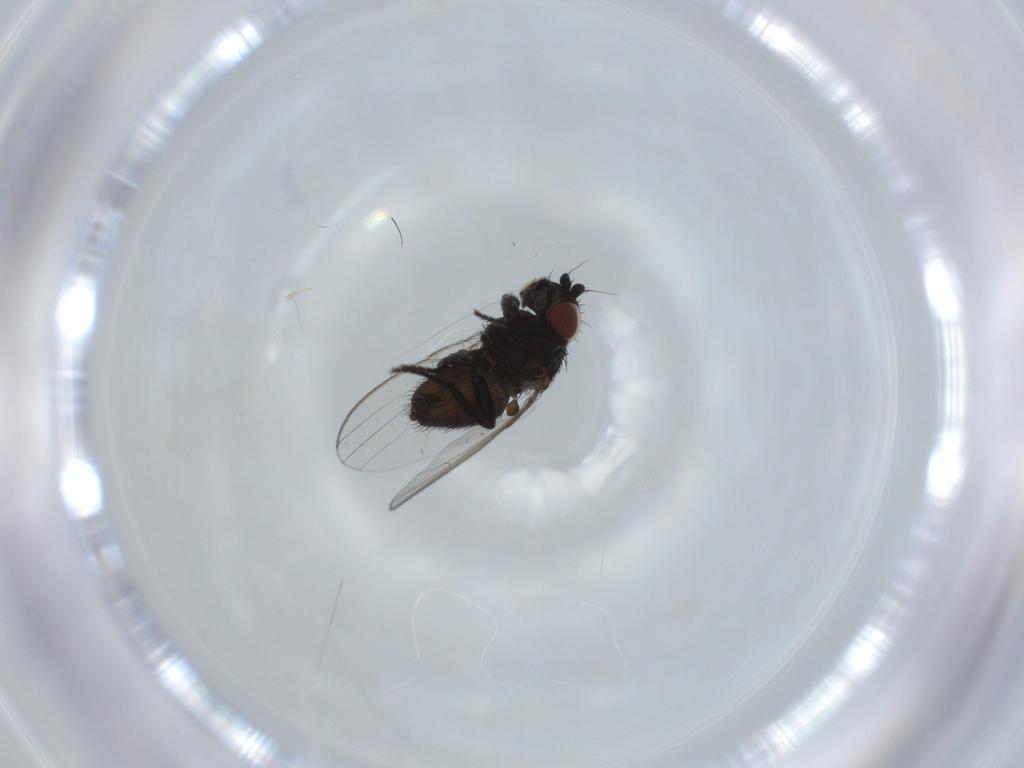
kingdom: Animalia
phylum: Arthropoda
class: Insecta
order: Diptera
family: Milichiidae
